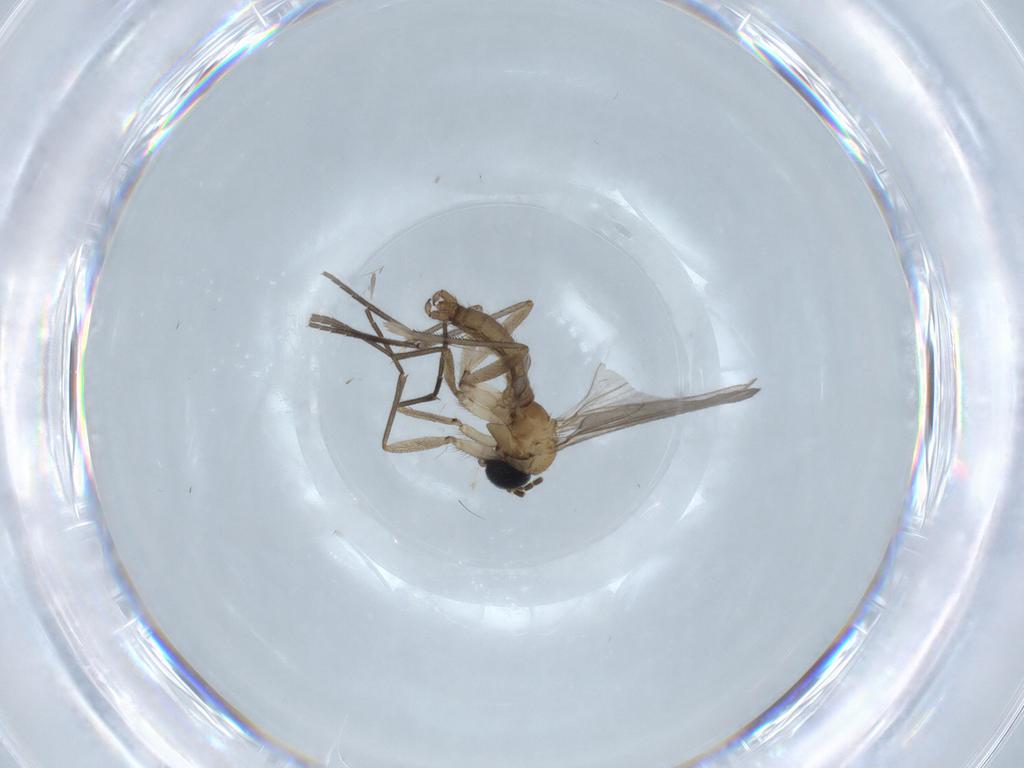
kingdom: Animalia
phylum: Arthropoda
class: Insecta
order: Diptera
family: Sciaridae
